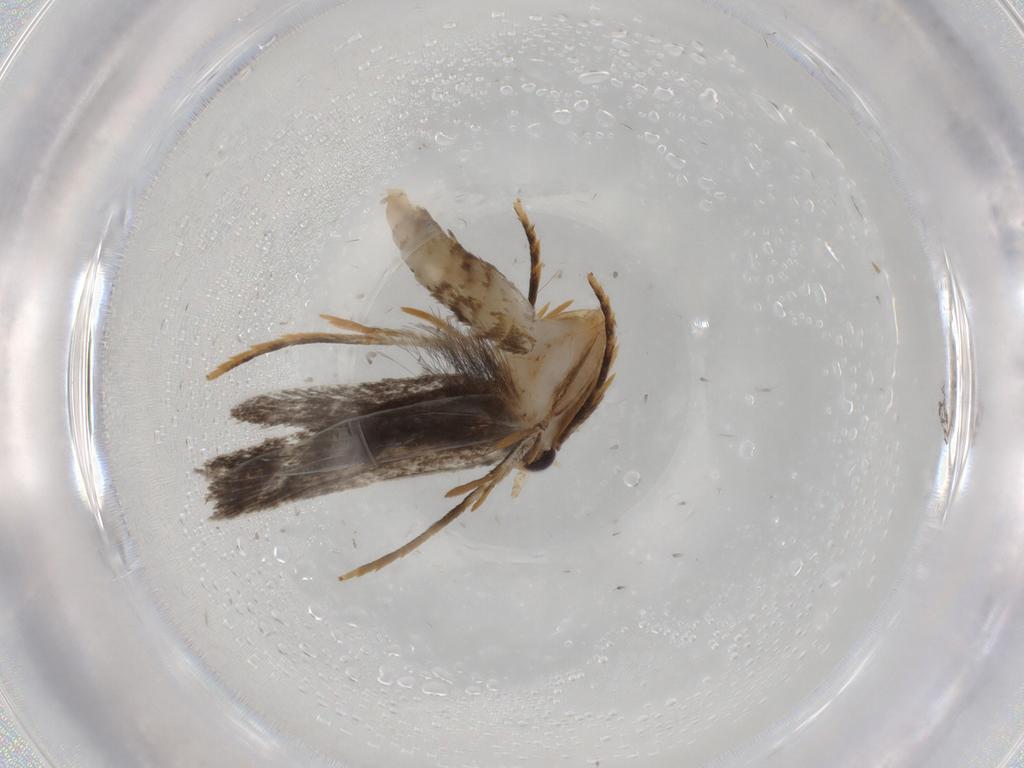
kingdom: Animalia
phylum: Arthropoda
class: Insecta
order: Lepidoptera
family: Tineidae
